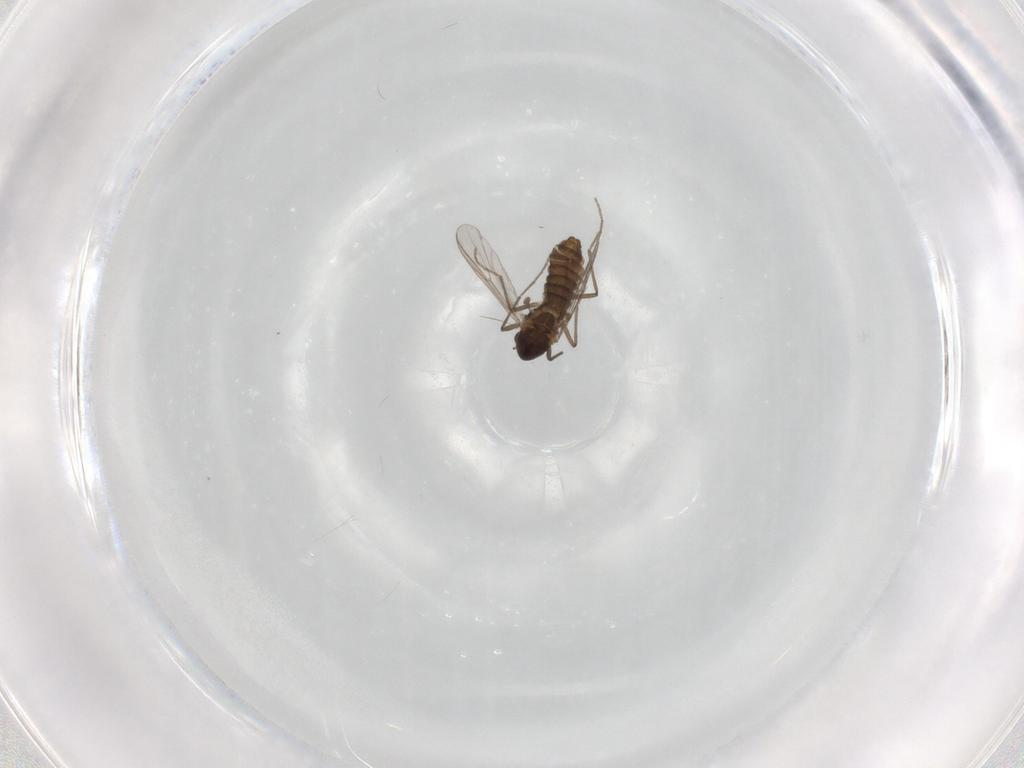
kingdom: Animalia
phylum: Arthropoda
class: Insecta
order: Diptera
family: Chironomidae
